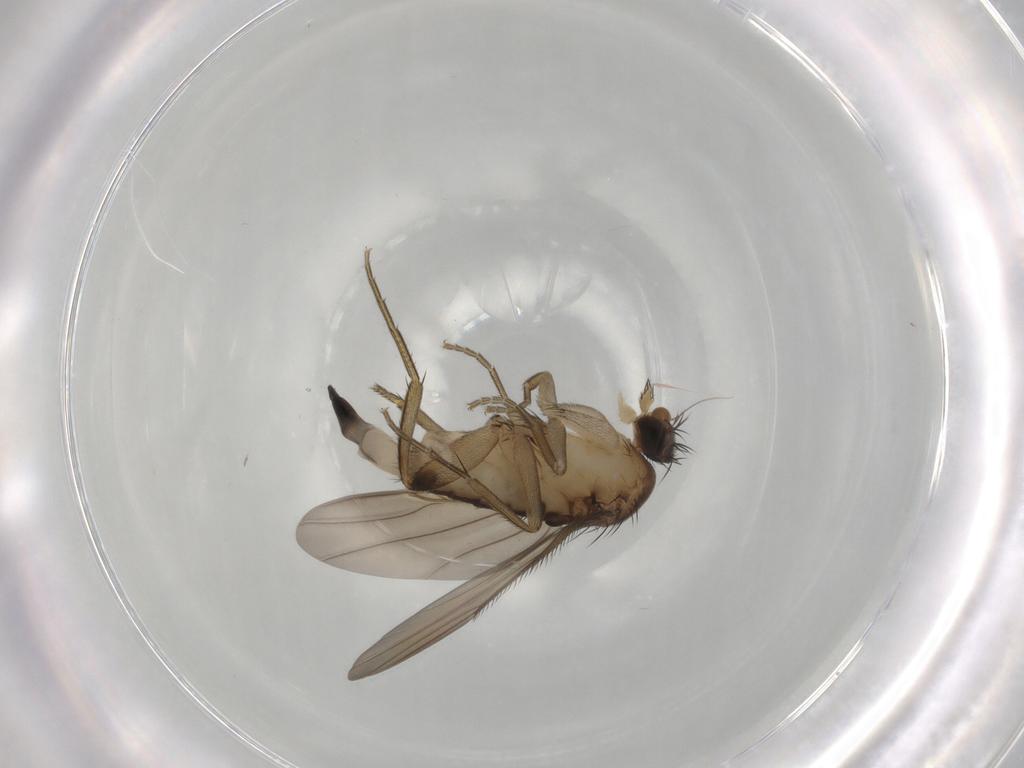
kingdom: Animalia
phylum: Arthropoda
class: Insecta
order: Diptera
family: Phoridae
